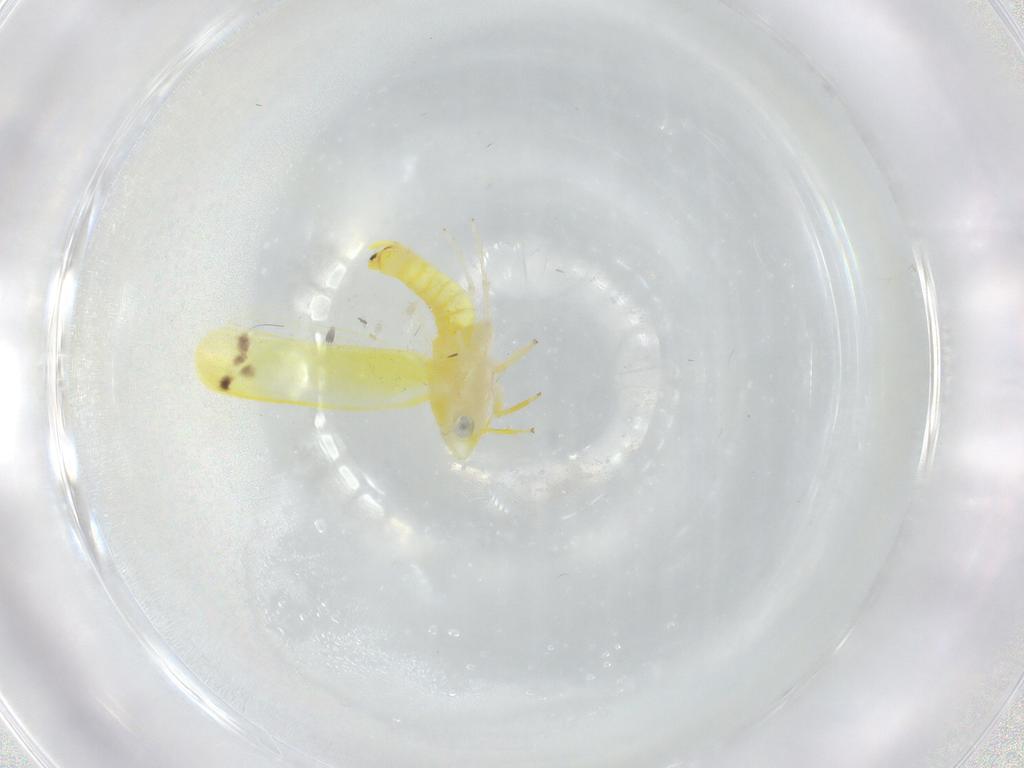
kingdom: Animalia
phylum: Arthropoda
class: Insecta
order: Hemiptera
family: Cicadellidae
